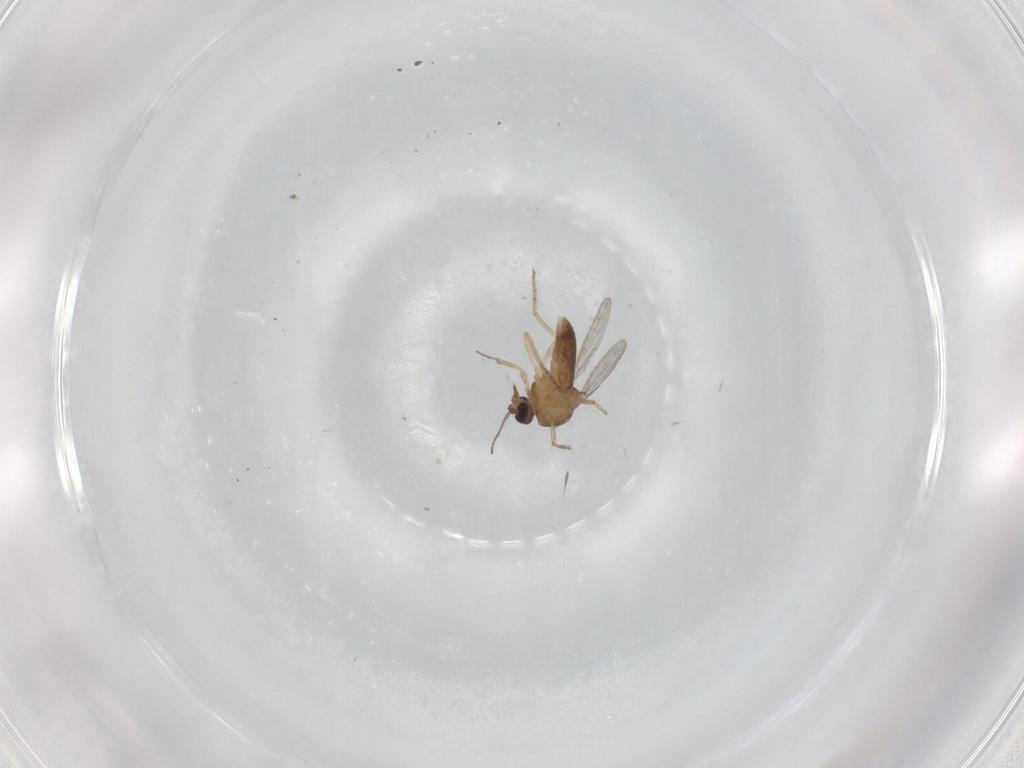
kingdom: Animalia
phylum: Arthropoda
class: Insecta
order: Diptera
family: Ceratopogonidae
